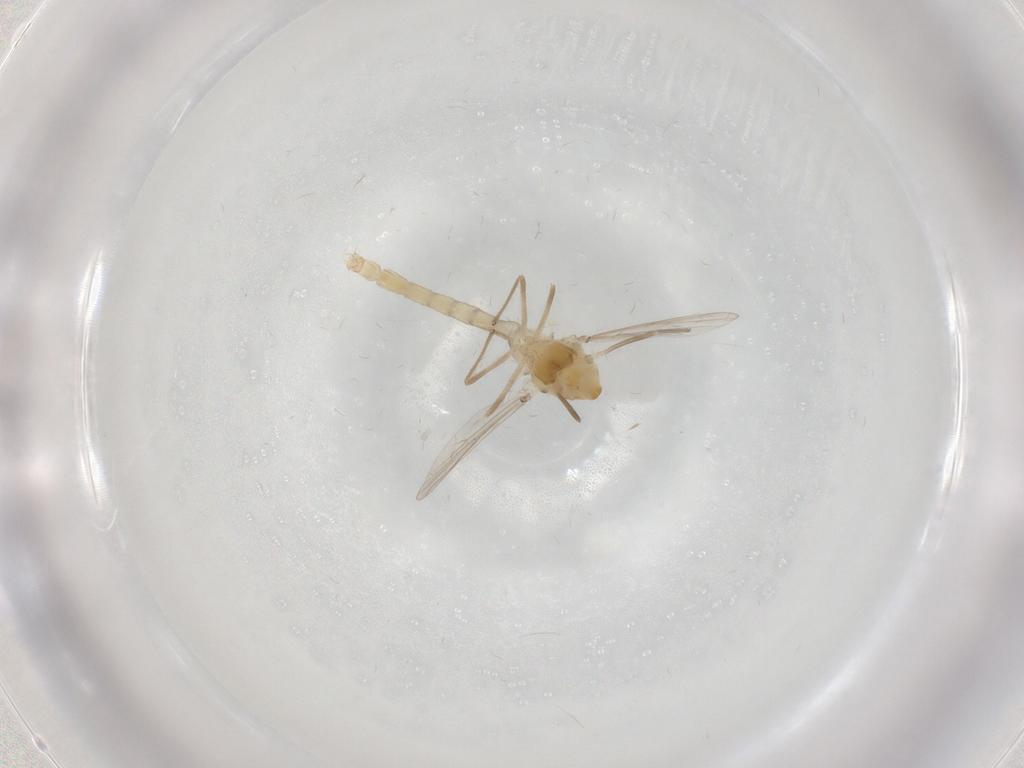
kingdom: Animalia
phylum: Arthropoda
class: Insecta
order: Diptera
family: Chironomidae
